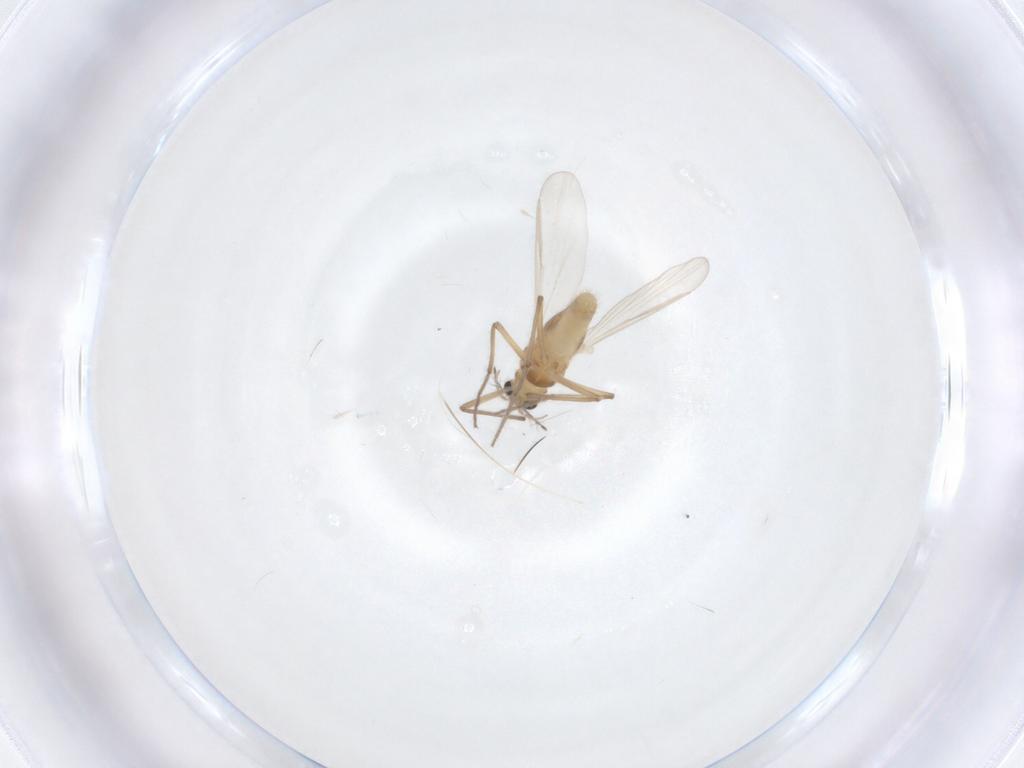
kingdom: Animalia
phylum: Arthropoda
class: Insecta
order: Diptera
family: Chironomidae
